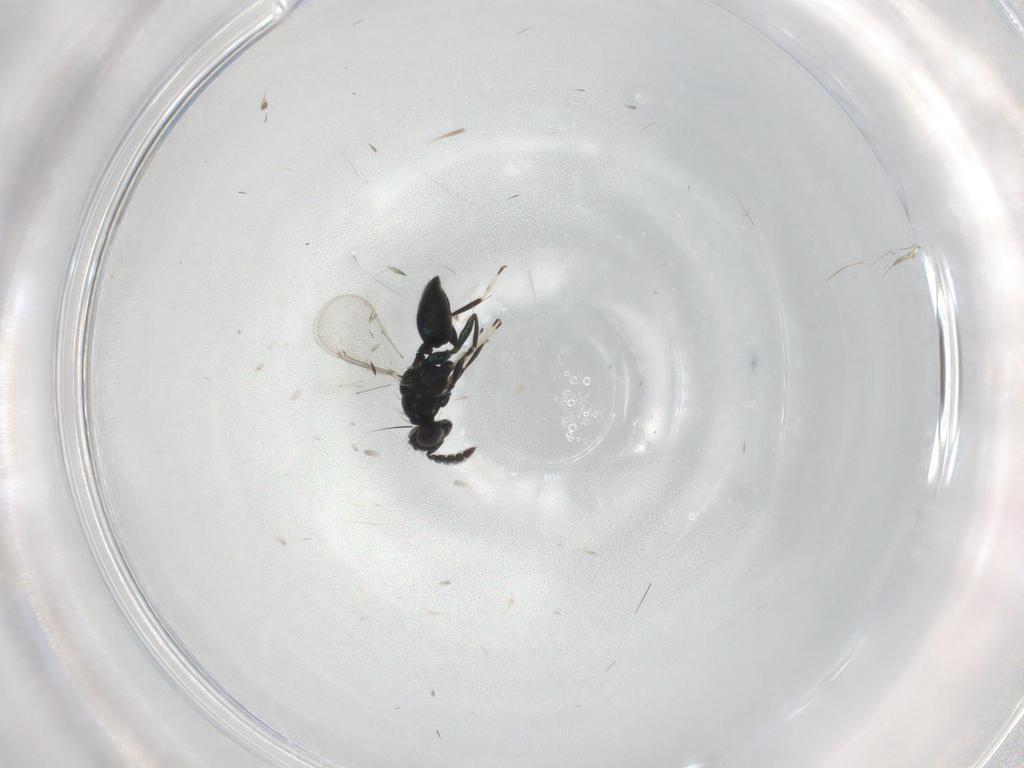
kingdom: Animalia
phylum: Arthropoda
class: Insecta
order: Hymenoptera
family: Eulophidae
